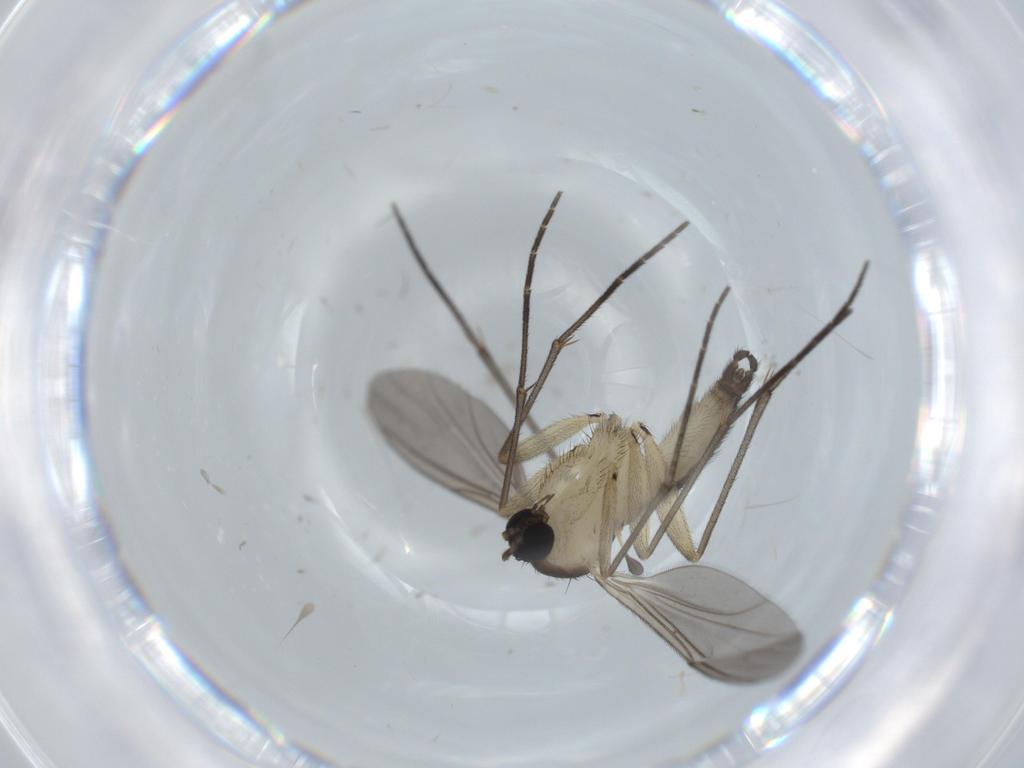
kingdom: Animalia
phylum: Arthropoda
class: Insecta
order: Diptera
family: Sciaridae
